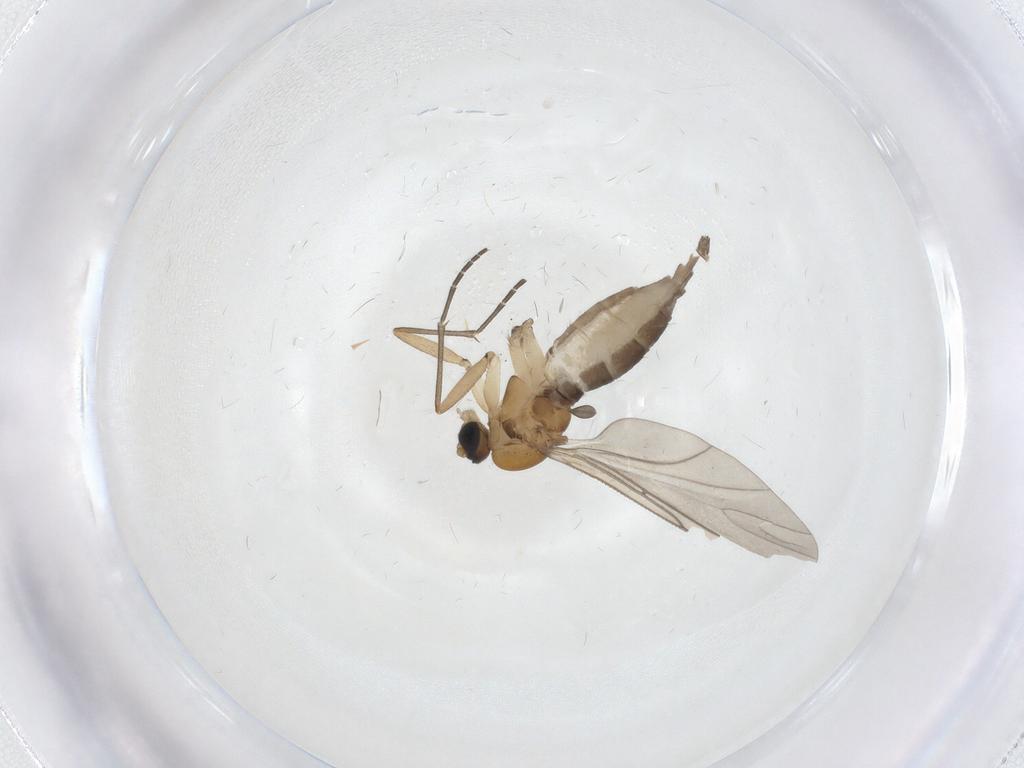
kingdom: Animalia
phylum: Arthropoda
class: Insecta
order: Diptera
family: Sciaridae
